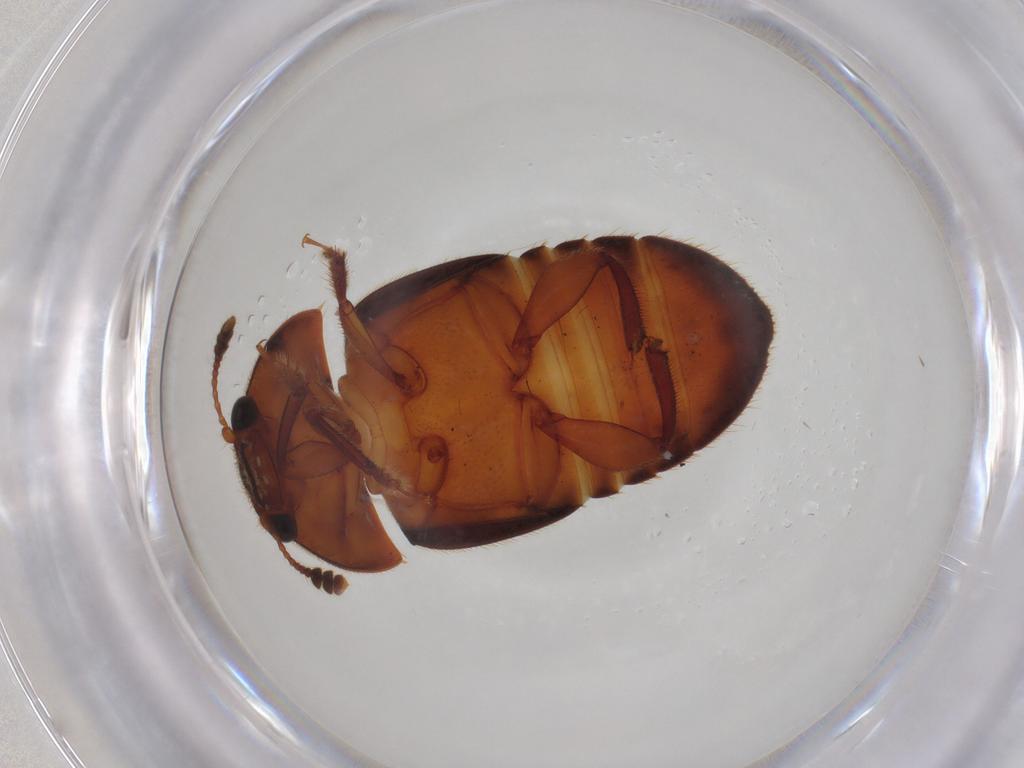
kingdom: Animalia
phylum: Arthropoda
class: Insecta
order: Coleoptera
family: Nitidulidae
